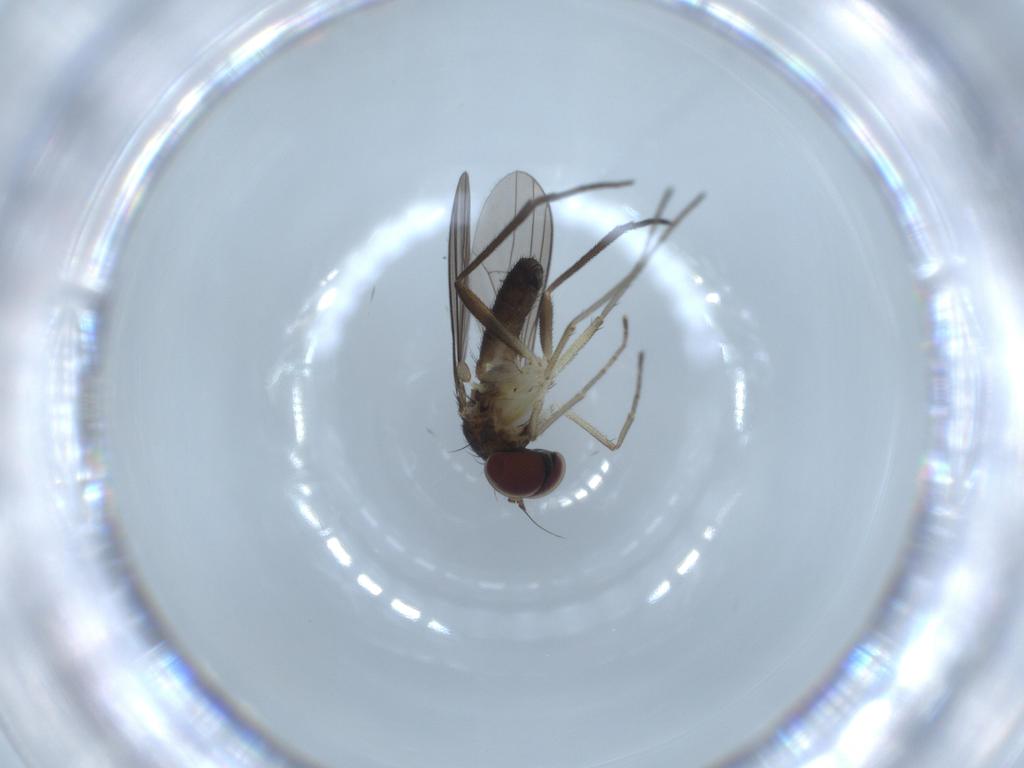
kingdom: Animalia
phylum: Arthropoda
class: Insecta
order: Diptera
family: Dolichopodidae
